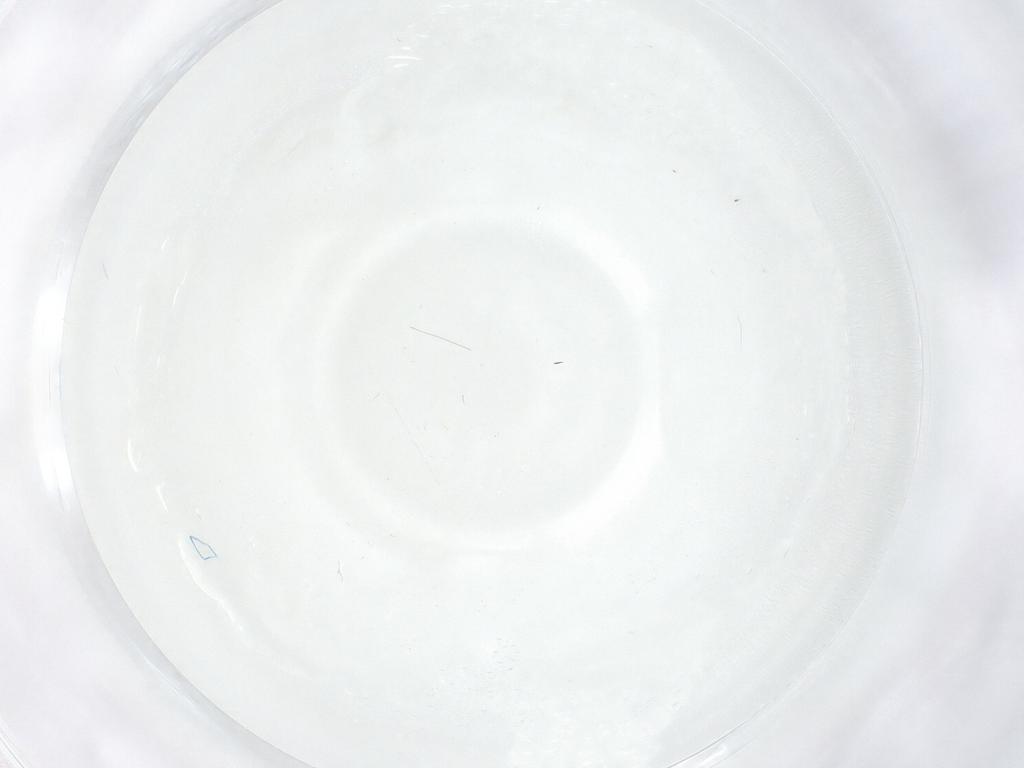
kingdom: Animalia
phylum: Arthropoda
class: Insecta
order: Diptera
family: Cecidomyiidae
